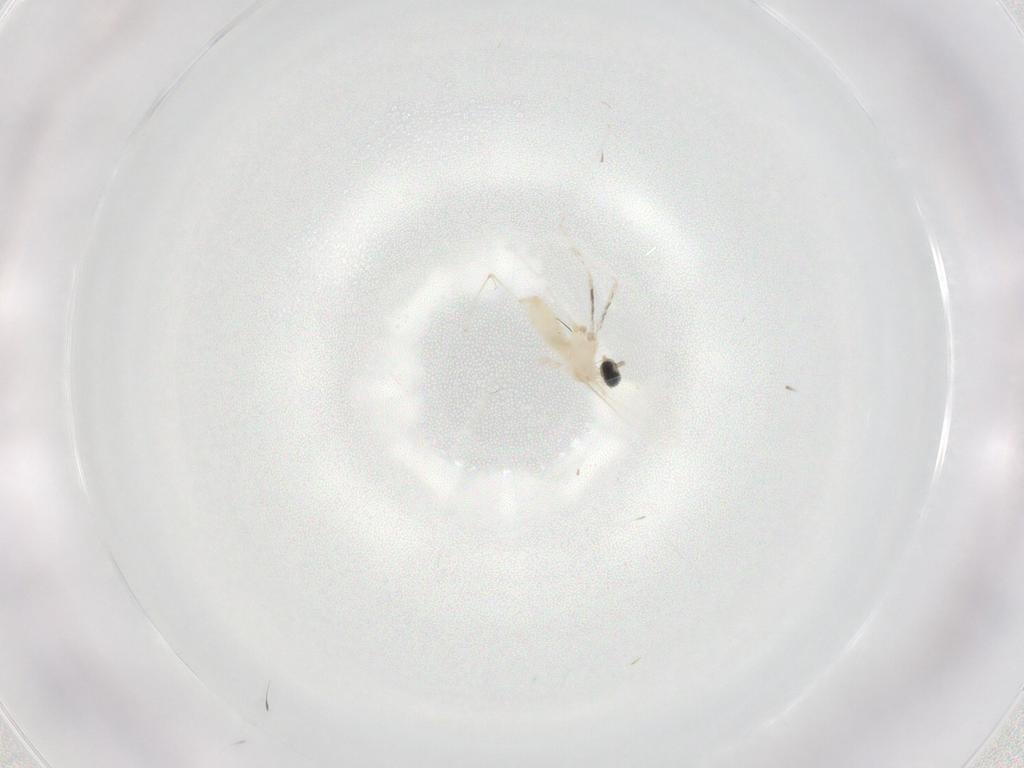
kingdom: Animalia
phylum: Arthropoda
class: Insecta
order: Diptera
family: Cecidomyiidae
